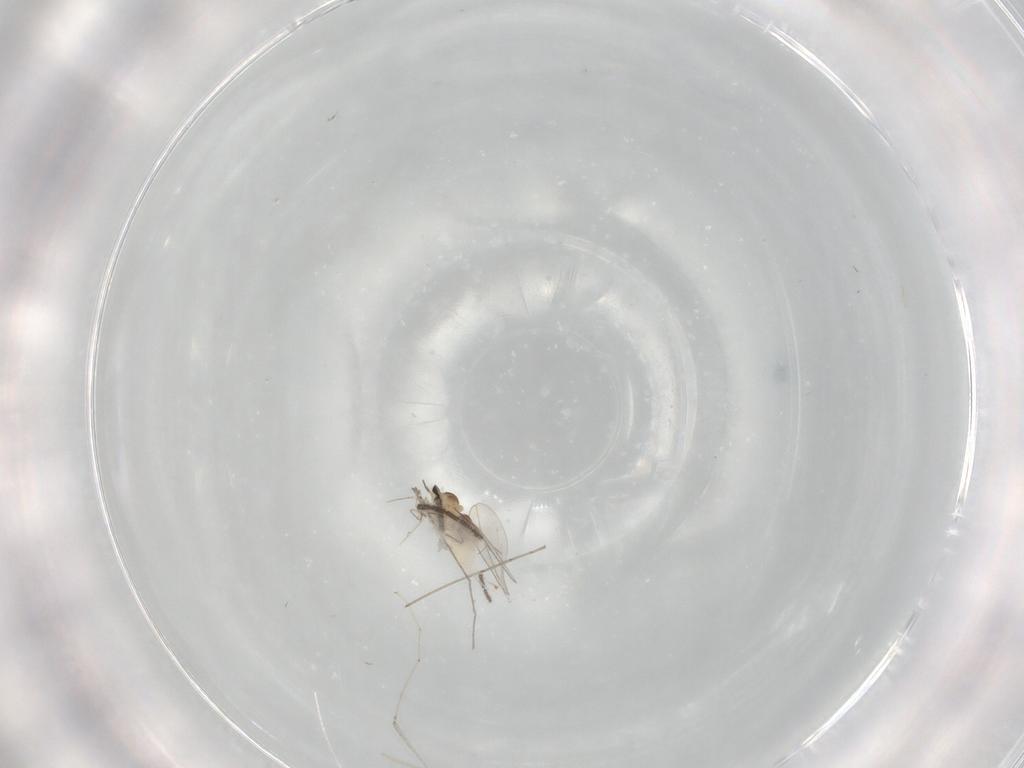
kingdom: Animalia
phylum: Arthropoda
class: Insecta
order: Diptera
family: Cecidomyiidae
